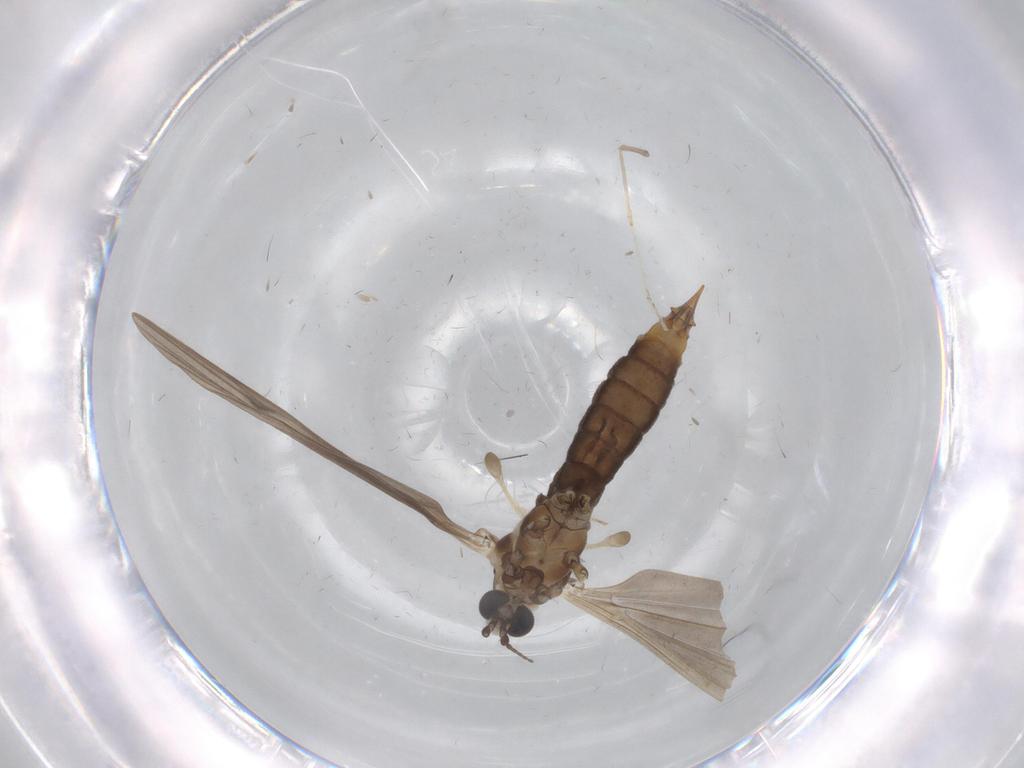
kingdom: Animalia
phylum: Arthropoda
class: Insecta
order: Diptera
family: Limoniidae
